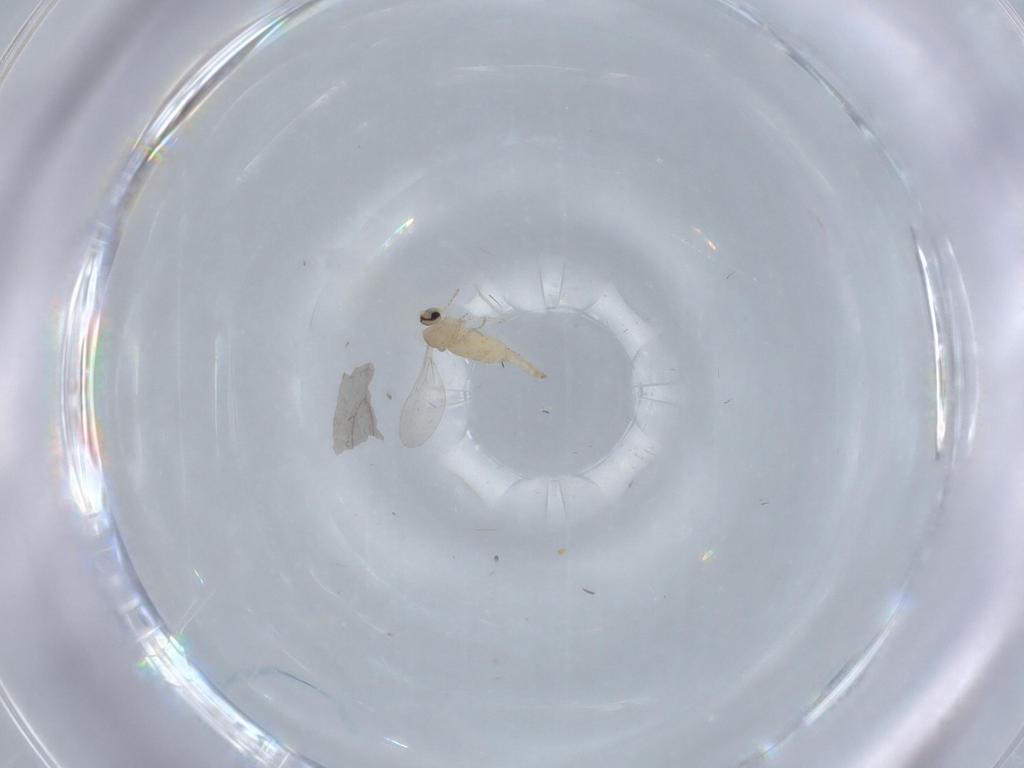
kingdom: Animalia
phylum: Arthropoda
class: Insecta
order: Diptera
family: Cecidomyiidae
